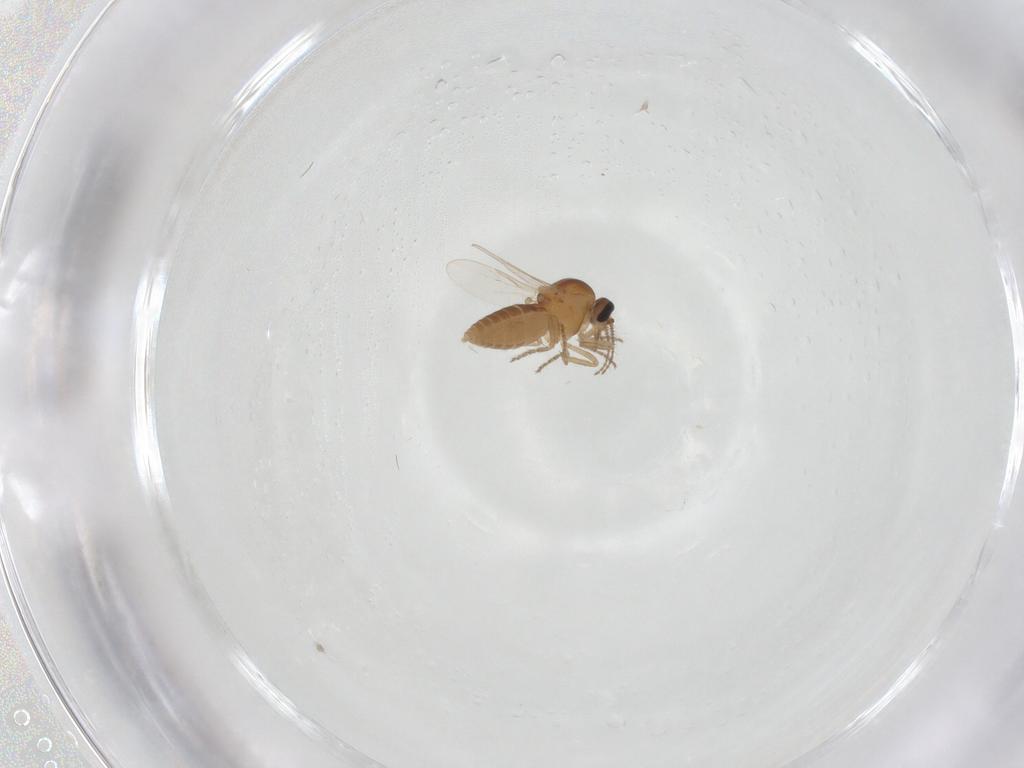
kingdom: Animalia
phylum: Arthropoda
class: Insecta
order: Diptera
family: Ceratopogonidae
